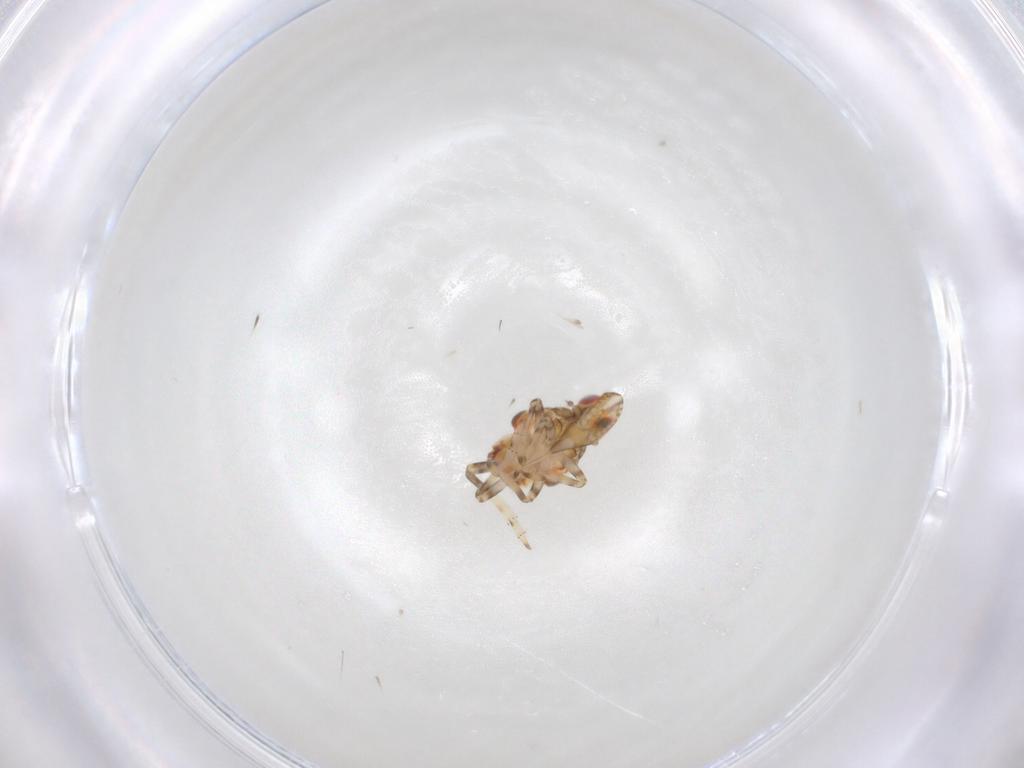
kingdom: Animalia
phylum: Arthropoda
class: Insecta
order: Hemiptera
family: Tropiduchidae
